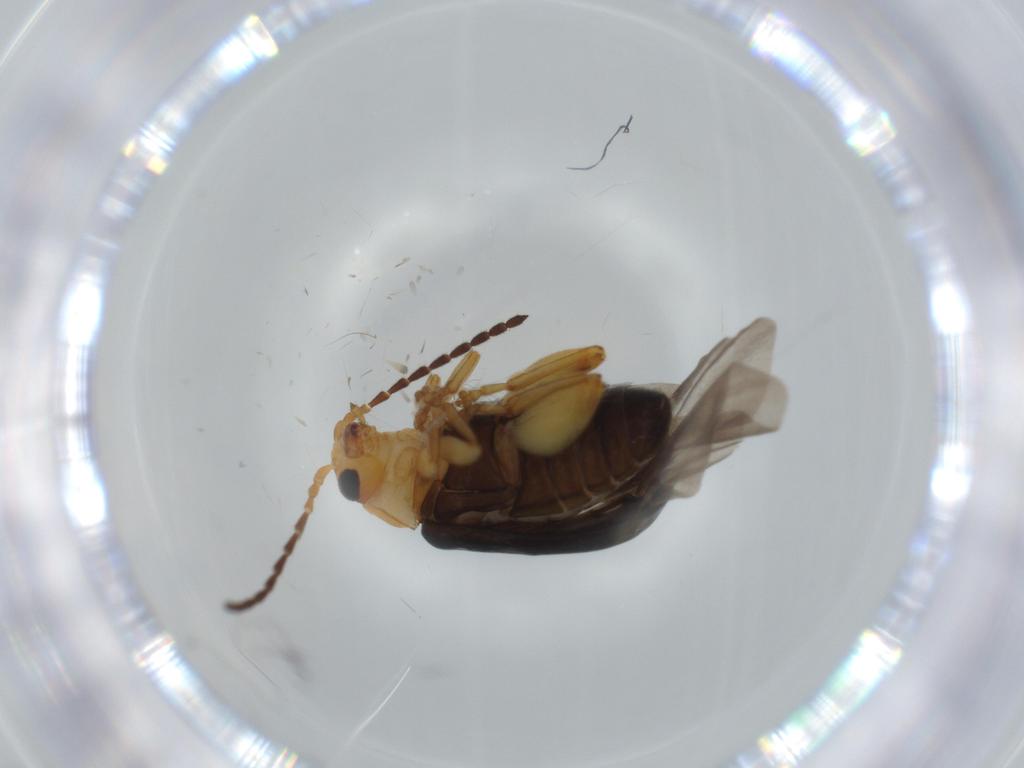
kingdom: Animalia
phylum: Arthropoda
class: Insecta
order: Coleoptera
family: Chrysomelidae
